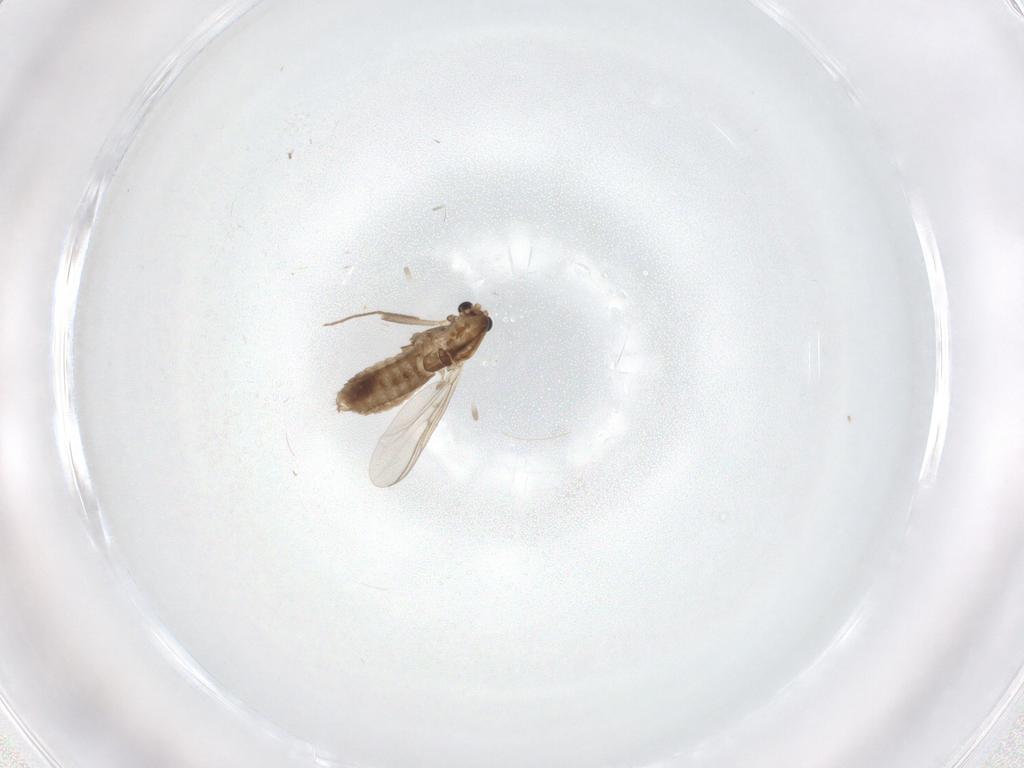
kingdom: Animalia
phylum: Arthropoda
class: Insecta
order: Diptera
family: Chironomidae
